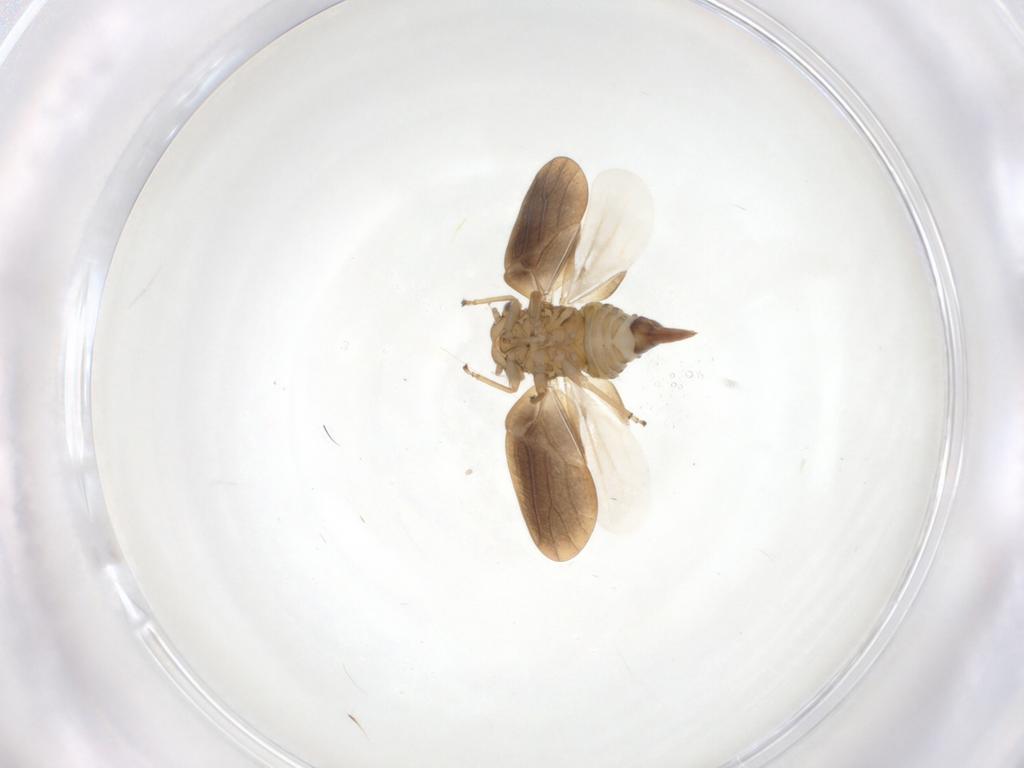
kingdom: Animalia
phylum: Arthropoda
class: Insecta
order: Hemiptera
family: Psylloidea_incertae_sedis
